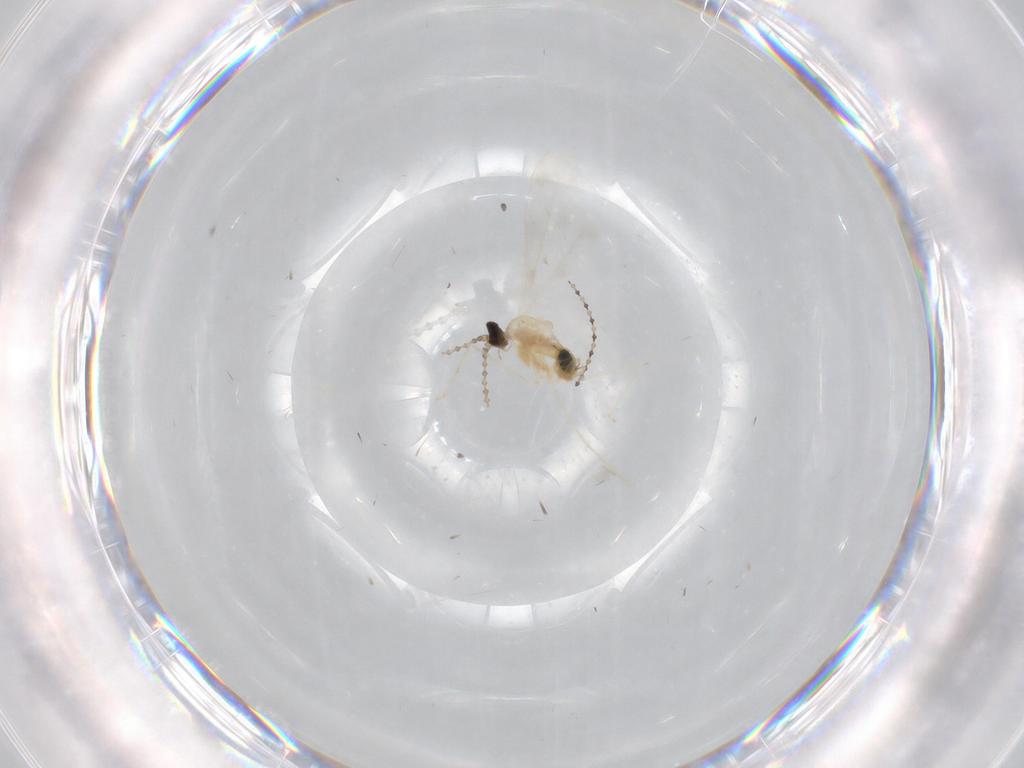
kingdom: Animalia
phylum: Arthropoda
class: Insecta
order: Diptera
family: Cecidomyiidae
